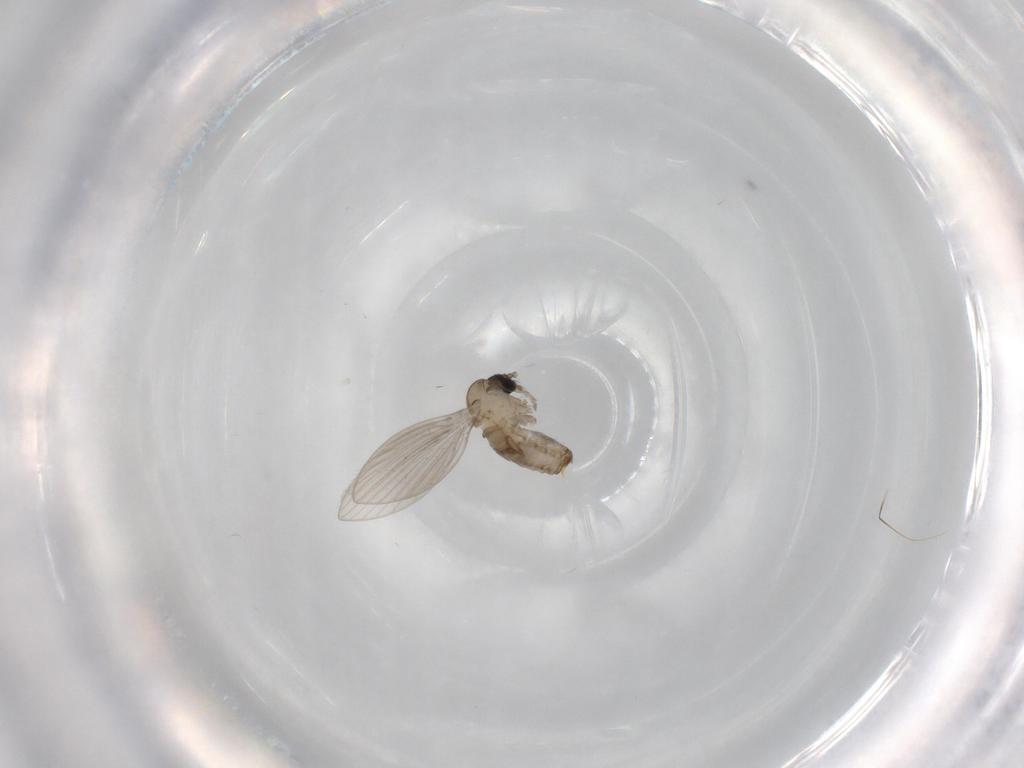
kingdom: Animalia
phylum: Arthropoda
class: Insecta
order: Diptera
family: Psychodidae
